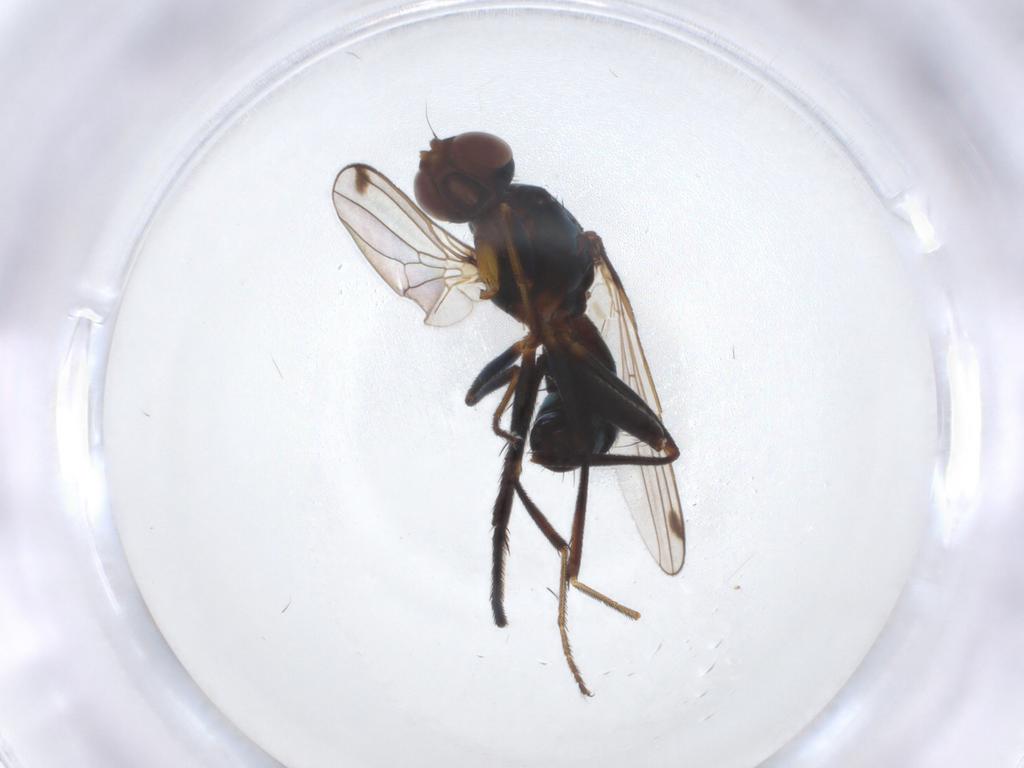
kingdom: Animalia
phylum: Arthropoda
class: Insecta
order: Diptera
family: Sepsidae
